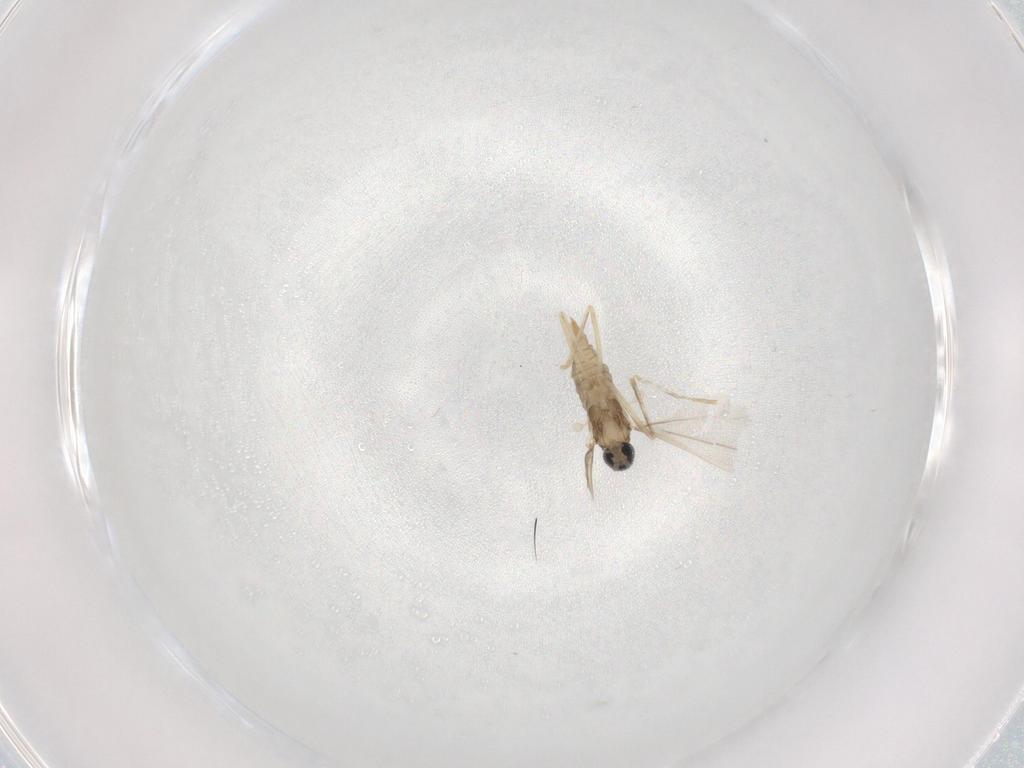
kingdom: Animalia
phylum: Arthropoda
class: Insecta
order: Diptera
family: Cecidomyiidae
